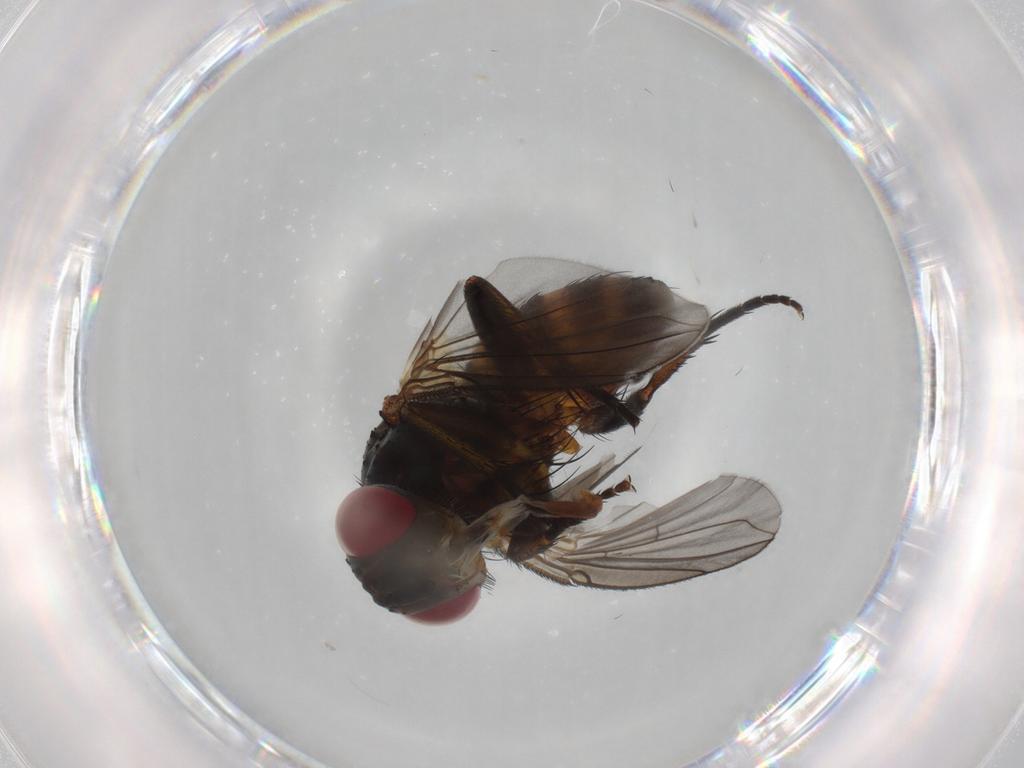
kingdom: Animalia
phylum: Arthropoda
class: Insecta
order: Diptera
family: Tachinidae
